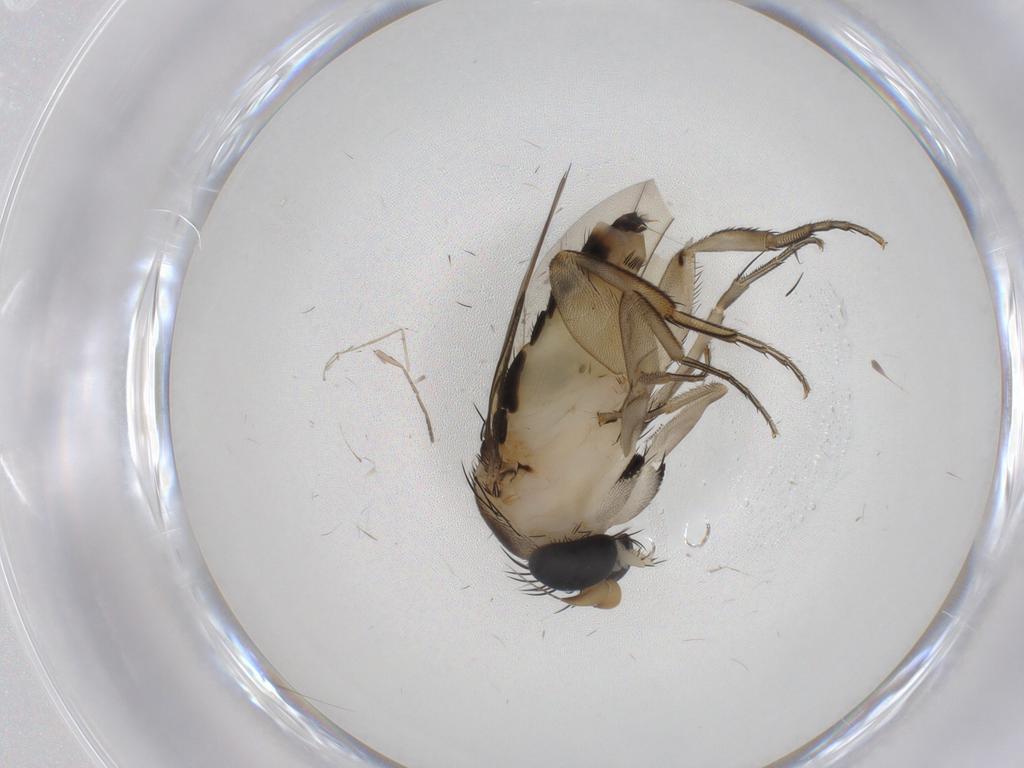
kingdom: Animalia
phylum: Arthropoda
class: Insecta
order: Diptera
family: Phoridae
